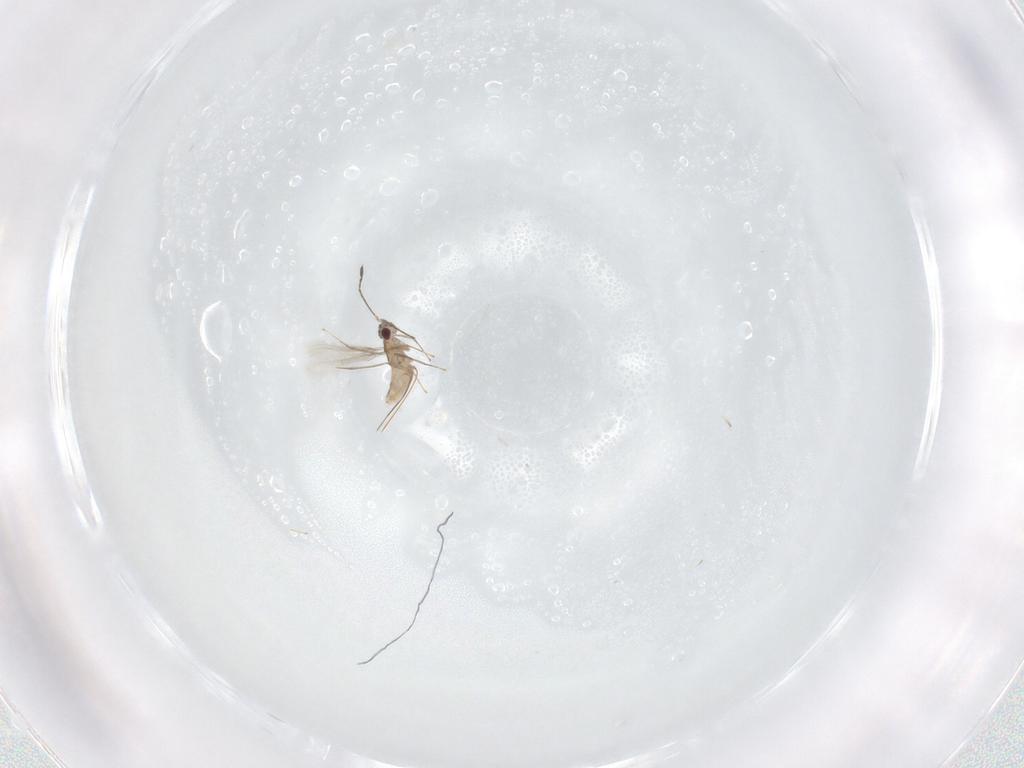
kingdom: Animalia
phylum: Arthropoda
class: Insecta
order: Hymenoptera
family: Mymaridae
